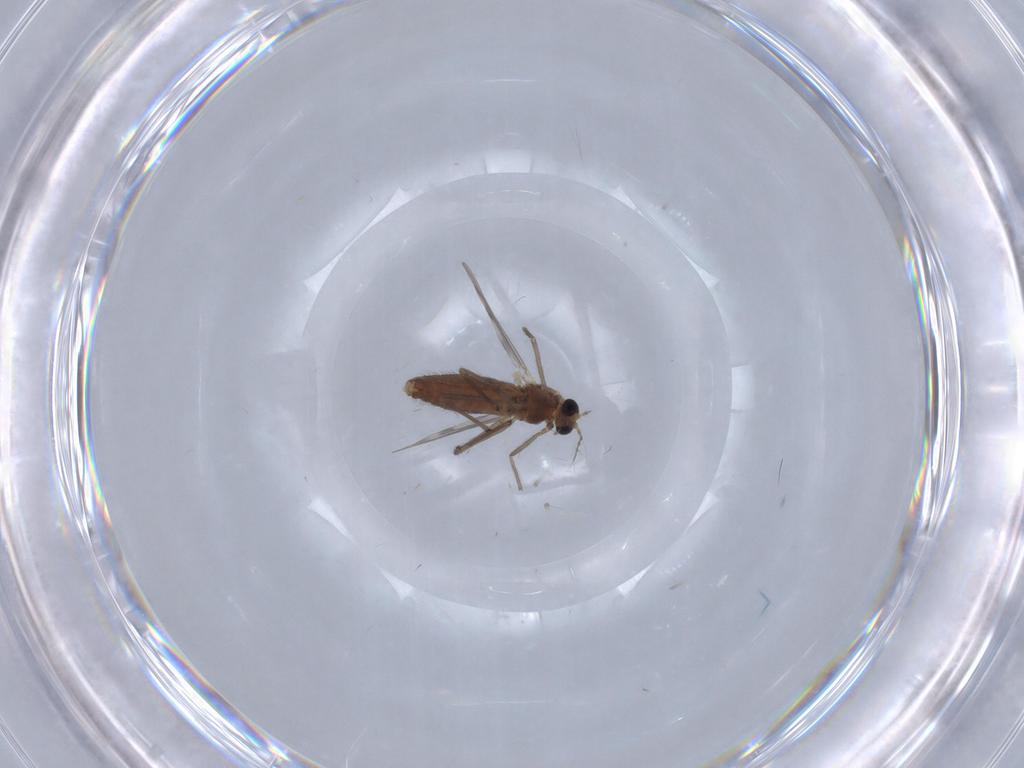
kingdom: Animalia
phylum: Arthropoda
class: Insecta
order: Diptera
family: Chironomidae
